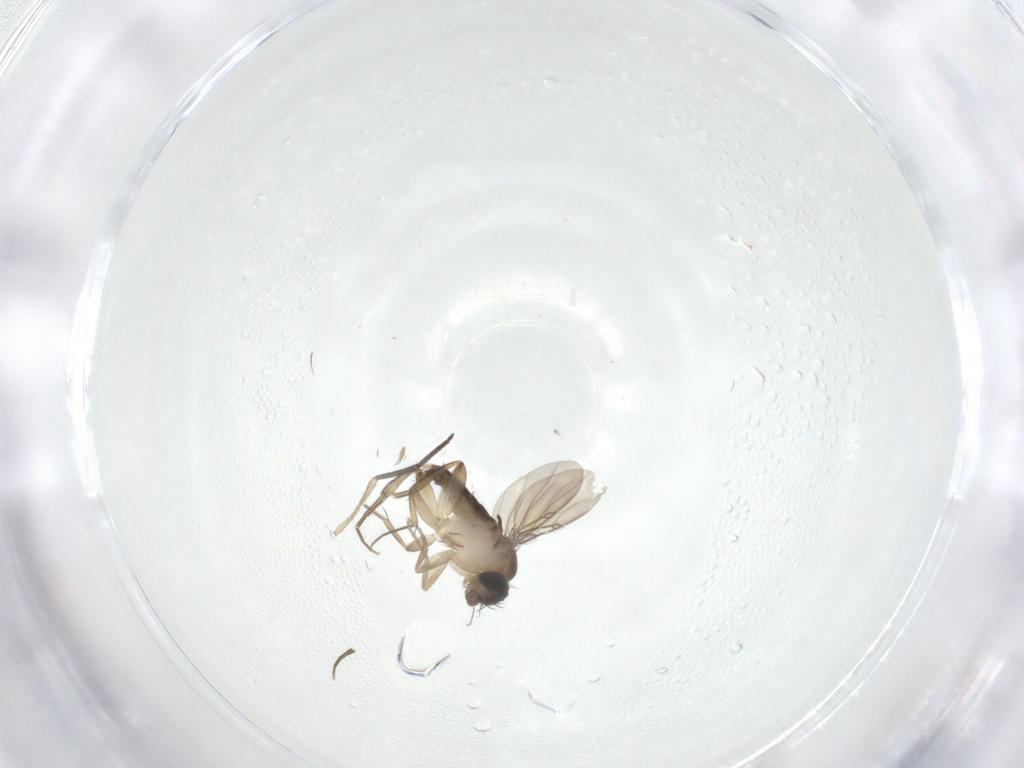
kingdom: Animalia
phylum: Arthropoda
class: Insecta
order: Diptera
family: Phoridae
